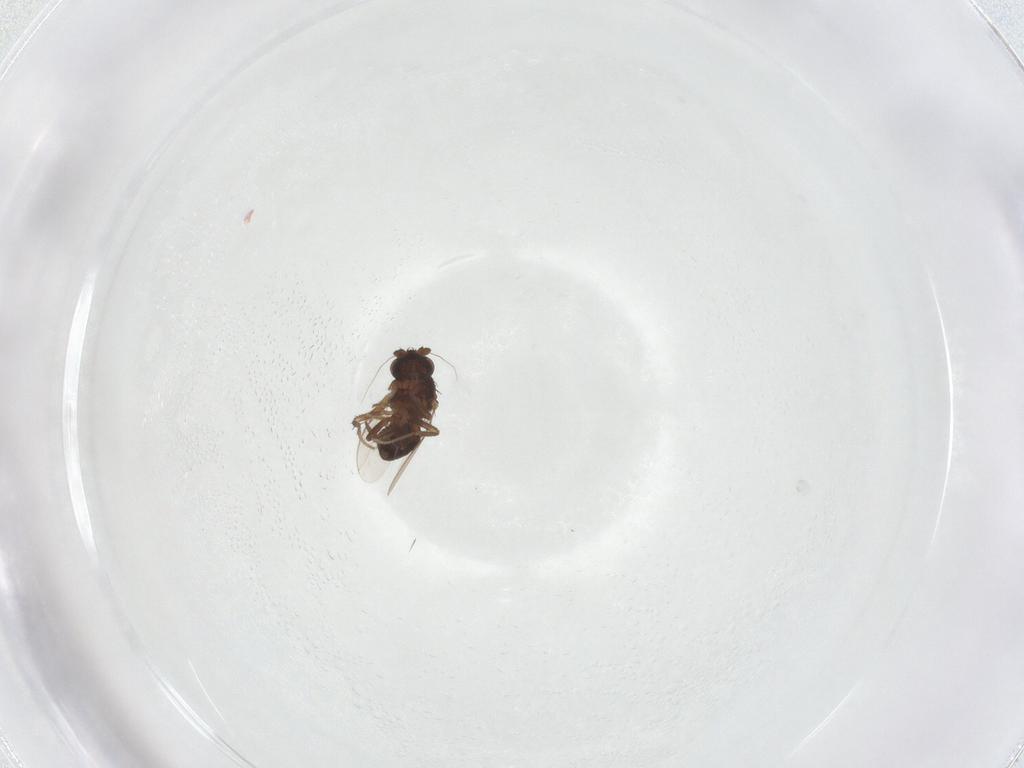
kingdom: Animalia
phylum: Arthropoda
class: Insecta
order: Diptera
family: Sphaeroceridae
